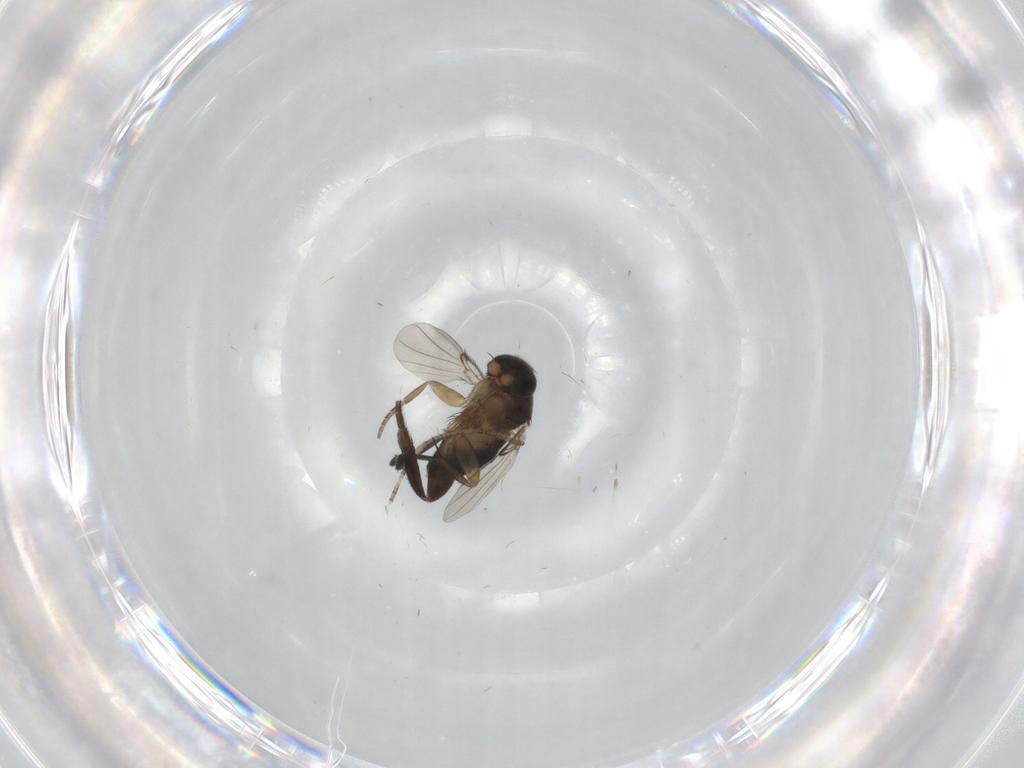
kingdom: Animalia
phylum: Arthropoda
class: Insecta
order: Diptera
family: Phoridae
